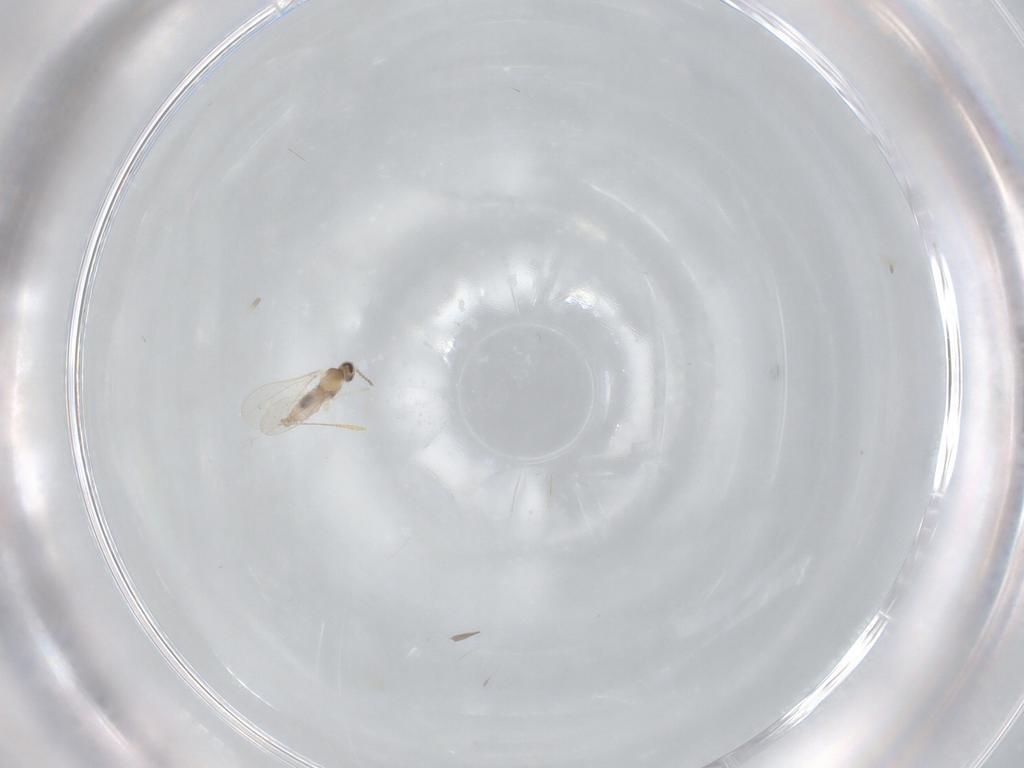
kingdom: Animalia
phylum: Arthropoda
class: Insecta
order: Diptera
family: Cecidomyiidae
